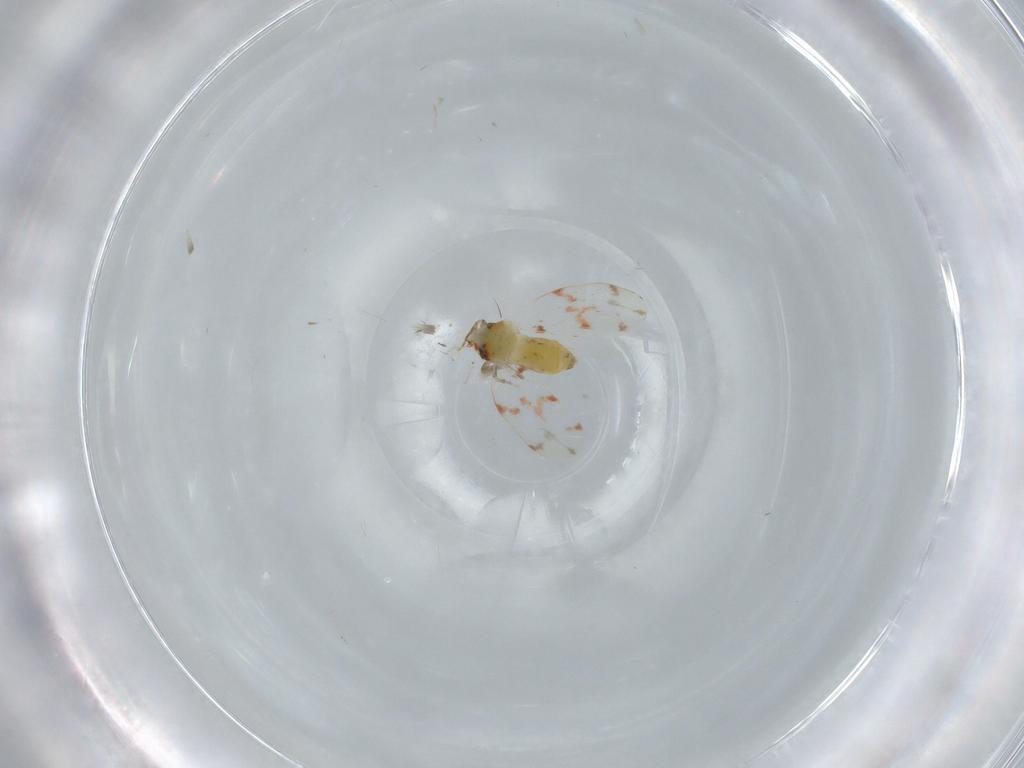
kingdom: Animalia
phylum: Arthropoda
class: Insecta
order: Hemiptera
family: Aleyrodidae
